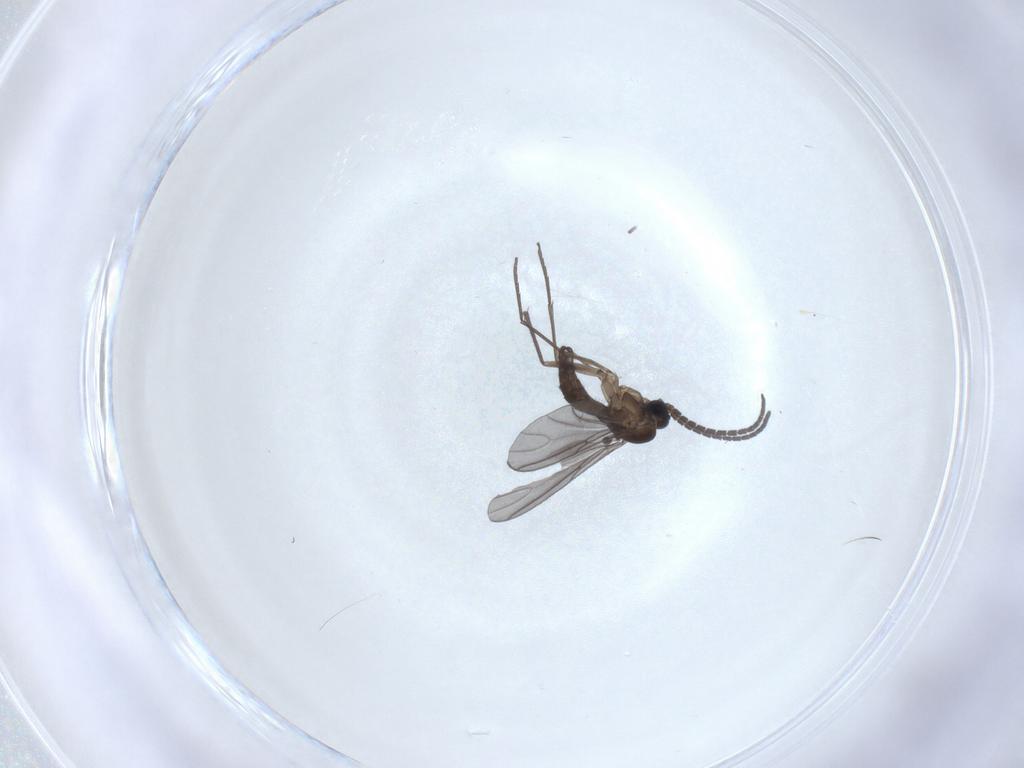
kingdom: Animalia
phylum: Arthropoda
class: Insecta
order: Diptera
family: Sciaridae
